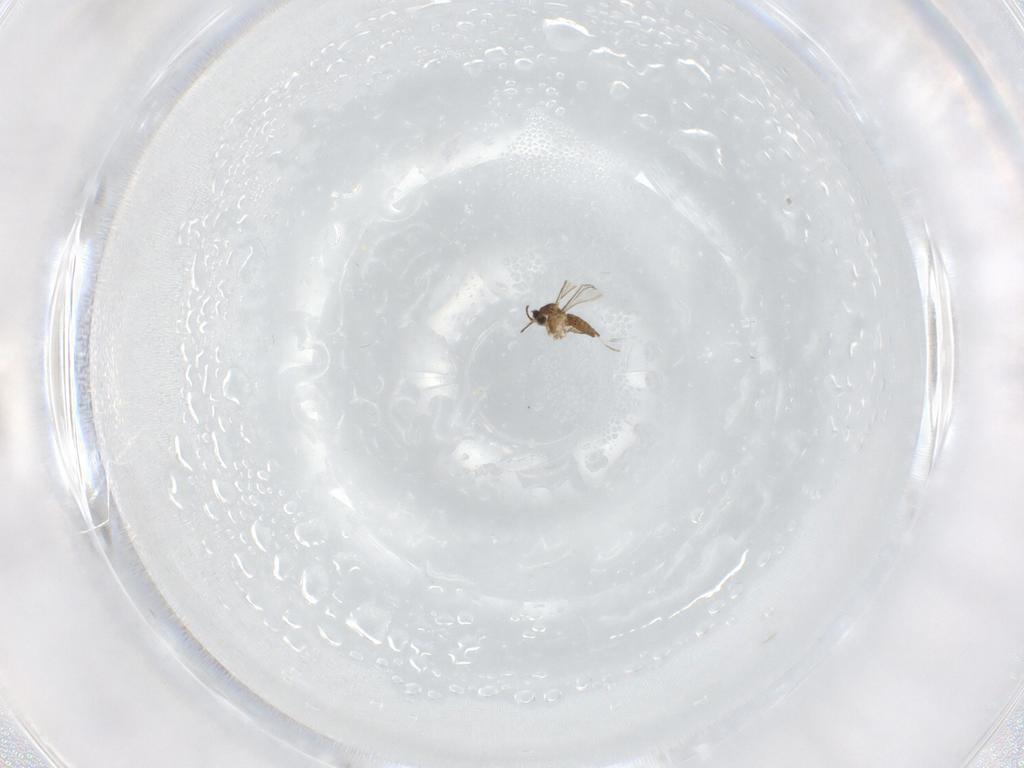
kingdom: Animalia
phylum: Arthropoda
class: Insecta
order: Diptera
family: Cecidomyiidae
